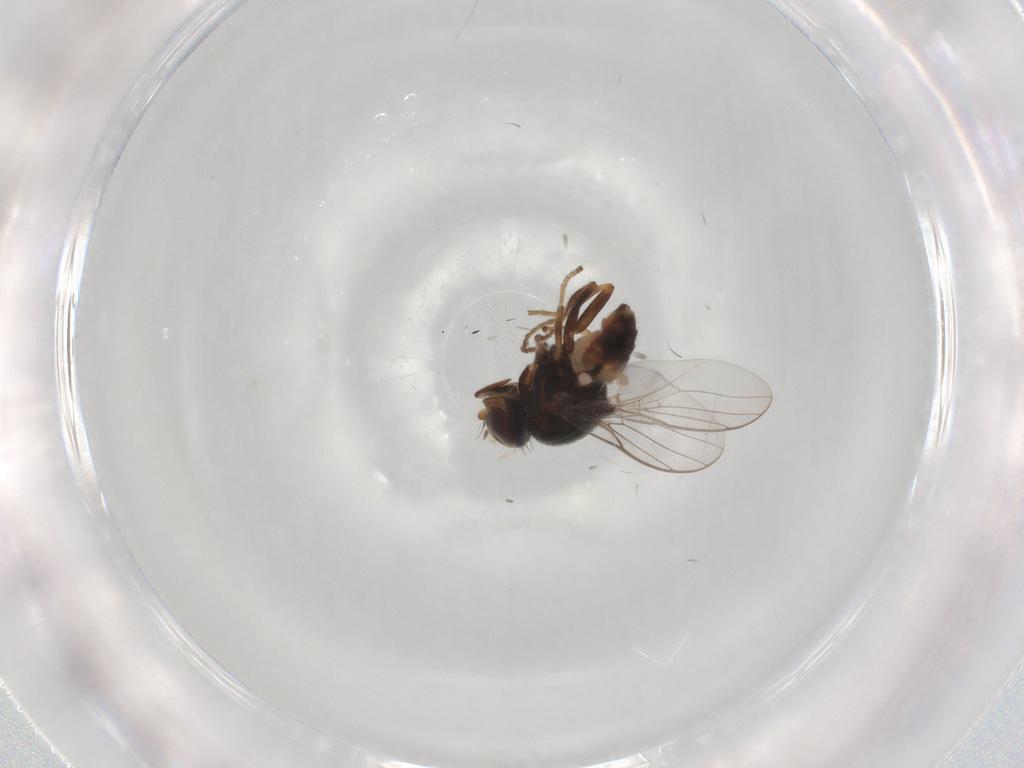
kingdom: Animalia
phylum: Arthropoda
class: Insecta
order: Diptera
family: Chloropidae
